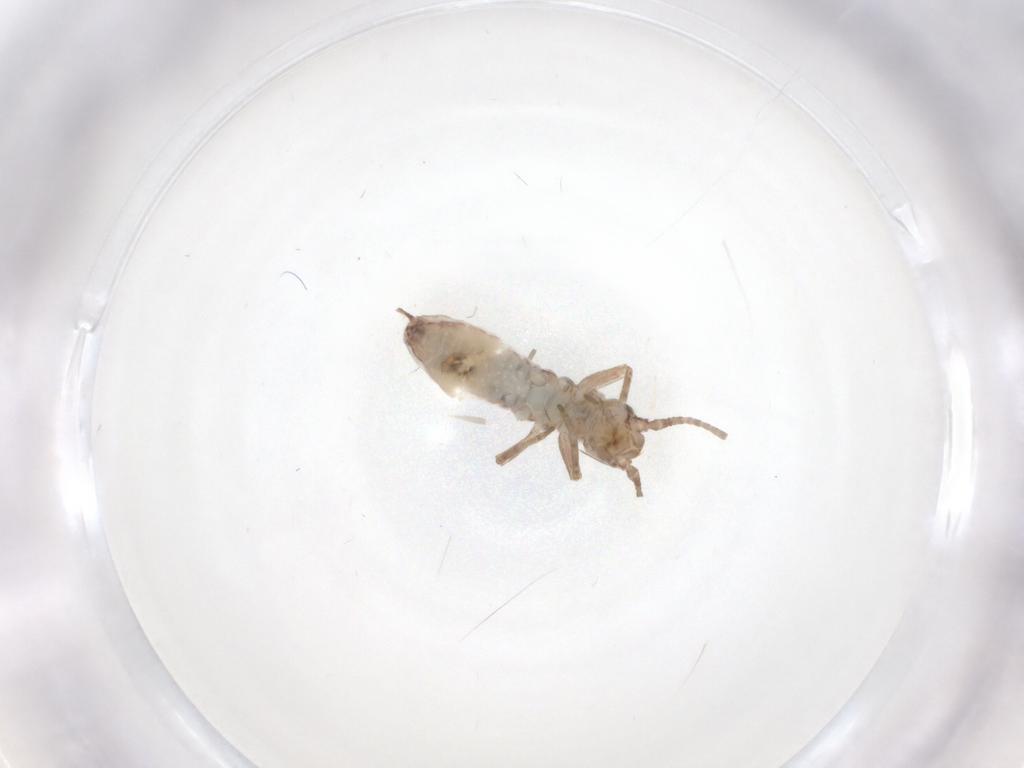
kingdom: Animalia
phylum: Arthropoda
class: Insecta
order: Orthoptera
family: Mogoplistidae
